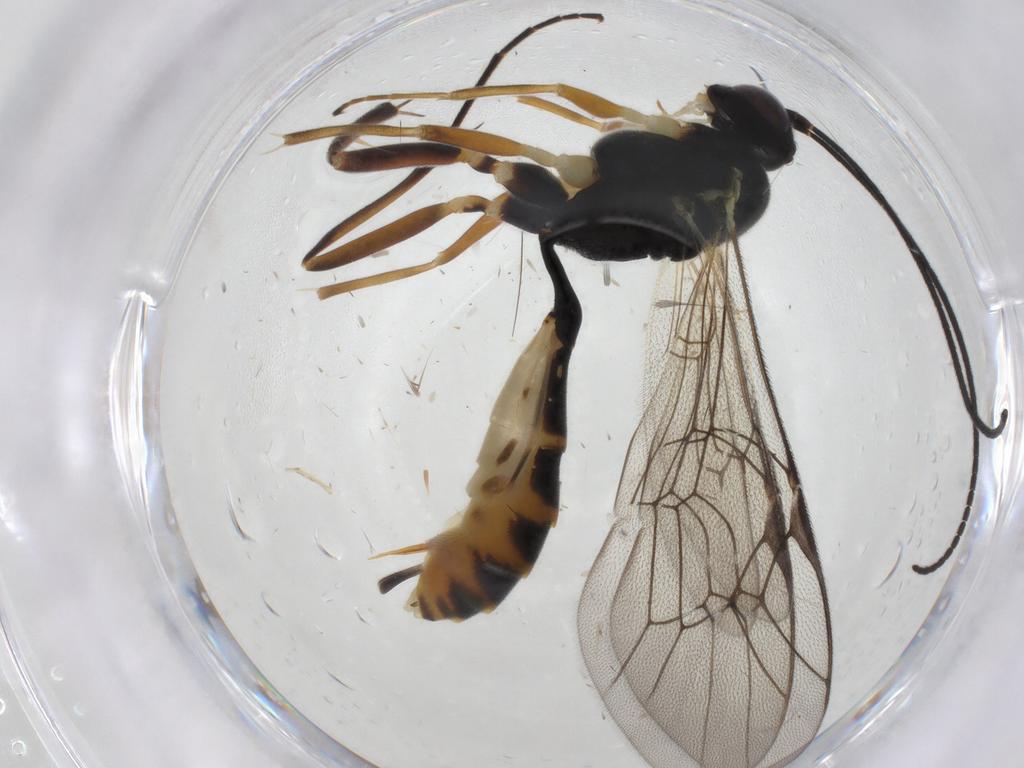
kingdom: Animalia
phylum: Arthropoda
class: Insecta
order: Hymenoptera
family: Ichneumonidae
